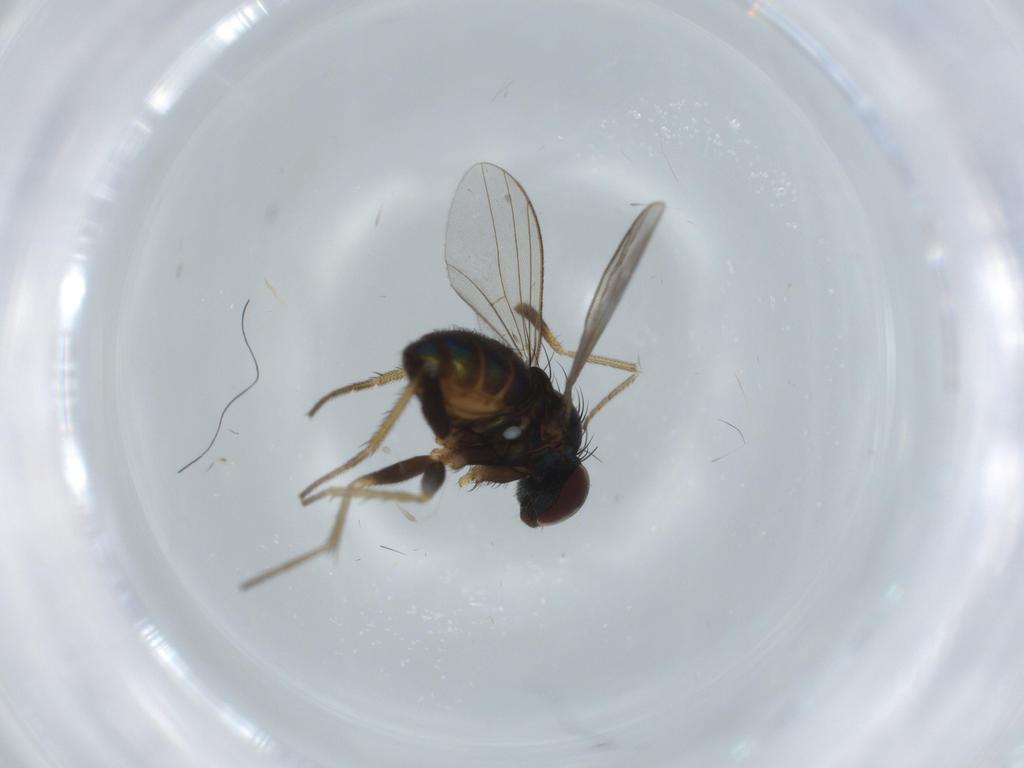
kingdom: Animalia
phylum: Arthropoda
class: Insecta
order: Diptera
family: Dolichopodidae
